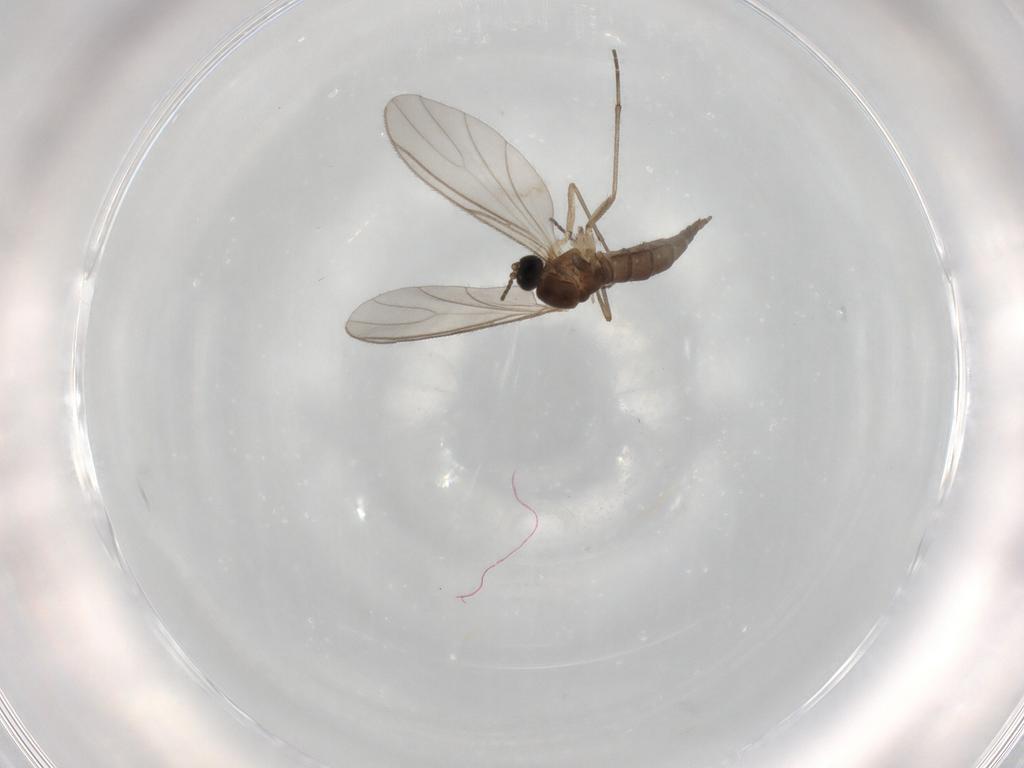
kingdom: Animalia
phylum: Arthropoda
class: Insecta
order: Diptera
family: Sciaridae
